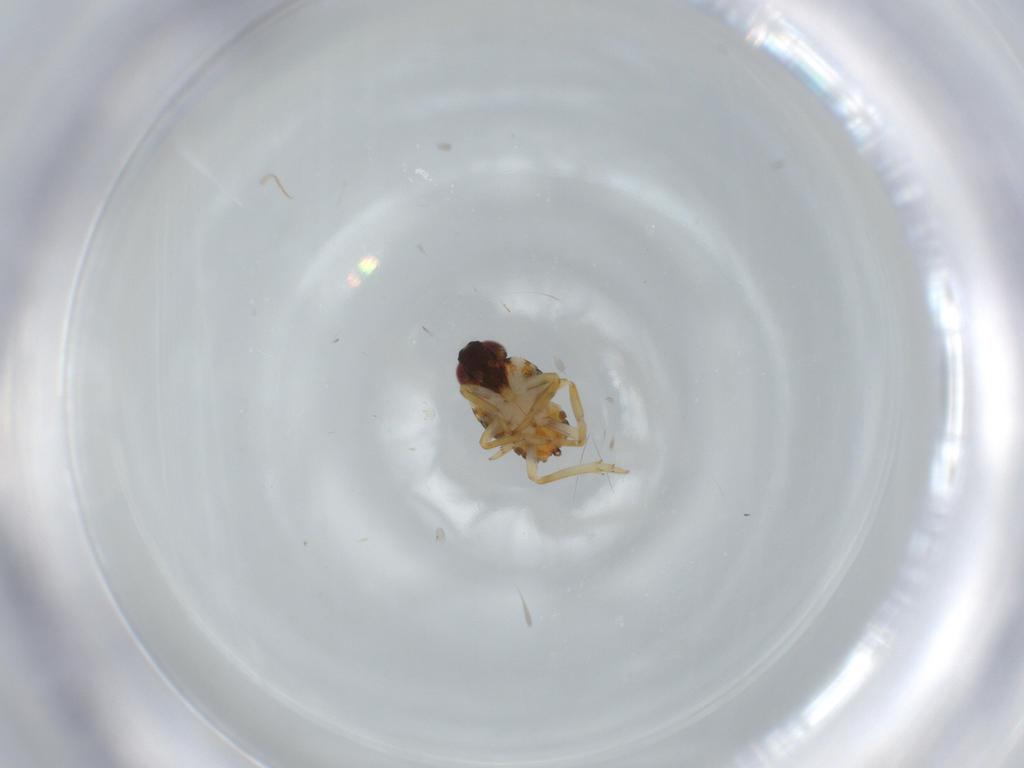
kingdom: Animalia
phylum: Arthropoda
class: Insecta
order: Hemiptera
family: Issidae
